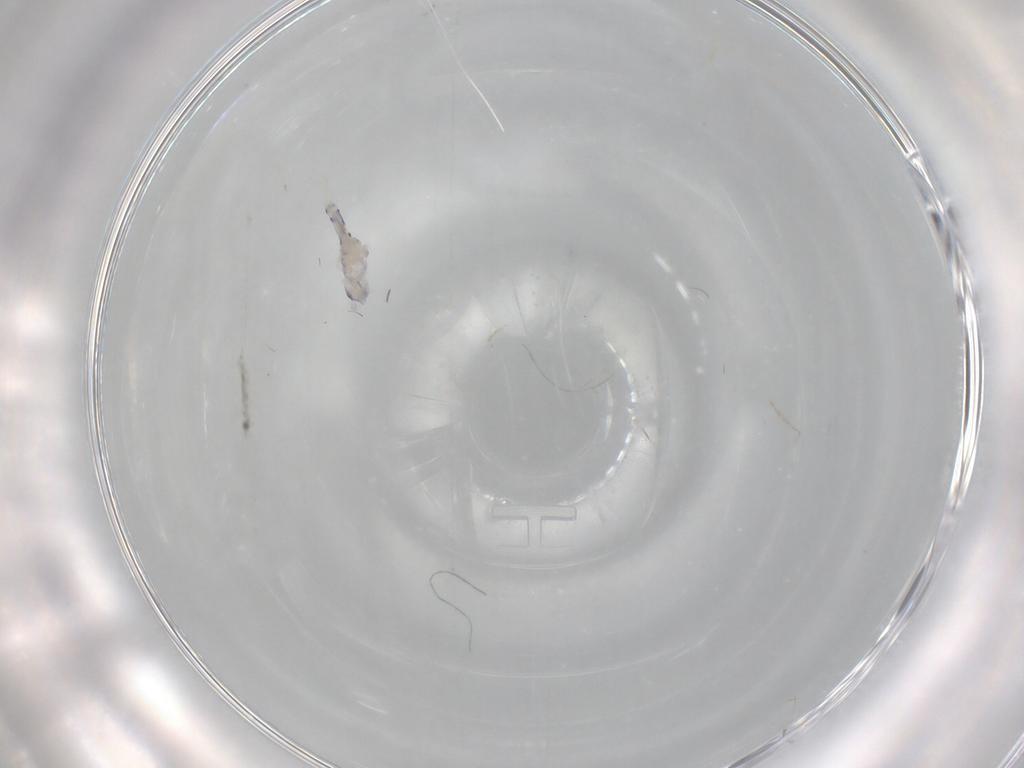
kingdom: Animalia
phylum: Arthropoda
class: Collembola
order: Entomobryomorpha
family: Entomobryidae
